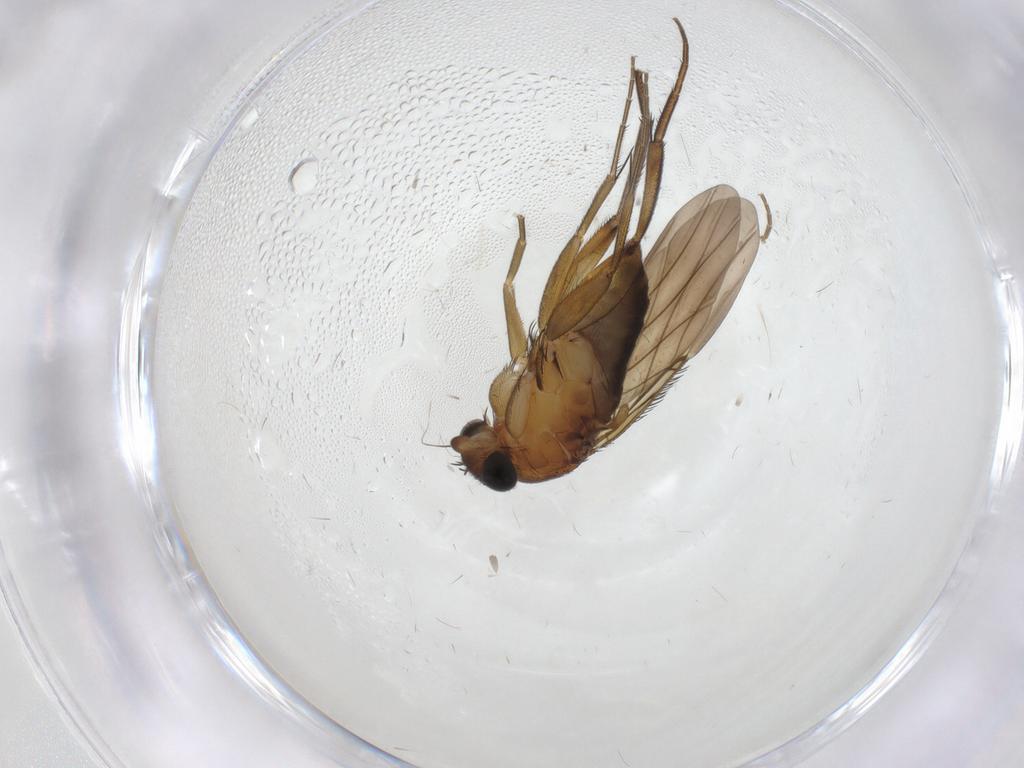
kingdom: Animalia
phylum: Arthropoda
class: Insecta
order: Diptera
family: Phoridae
